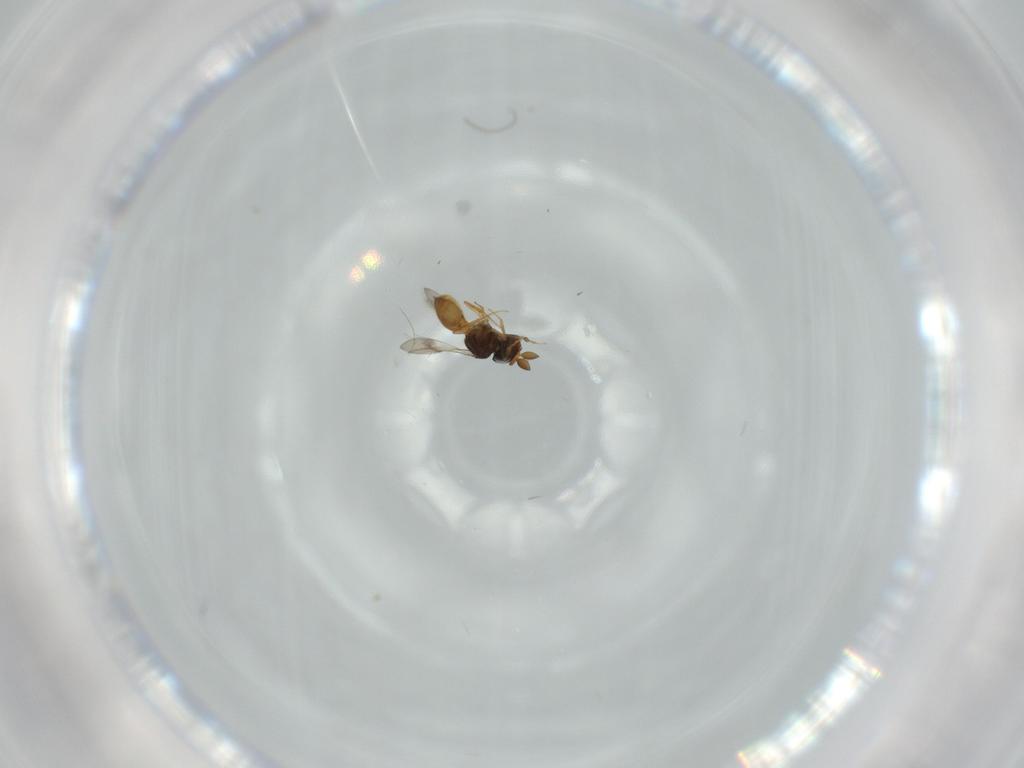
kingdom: Animalia
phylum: Arthropoda
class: Insecta
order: Hymenoptera
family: Scelionidae
